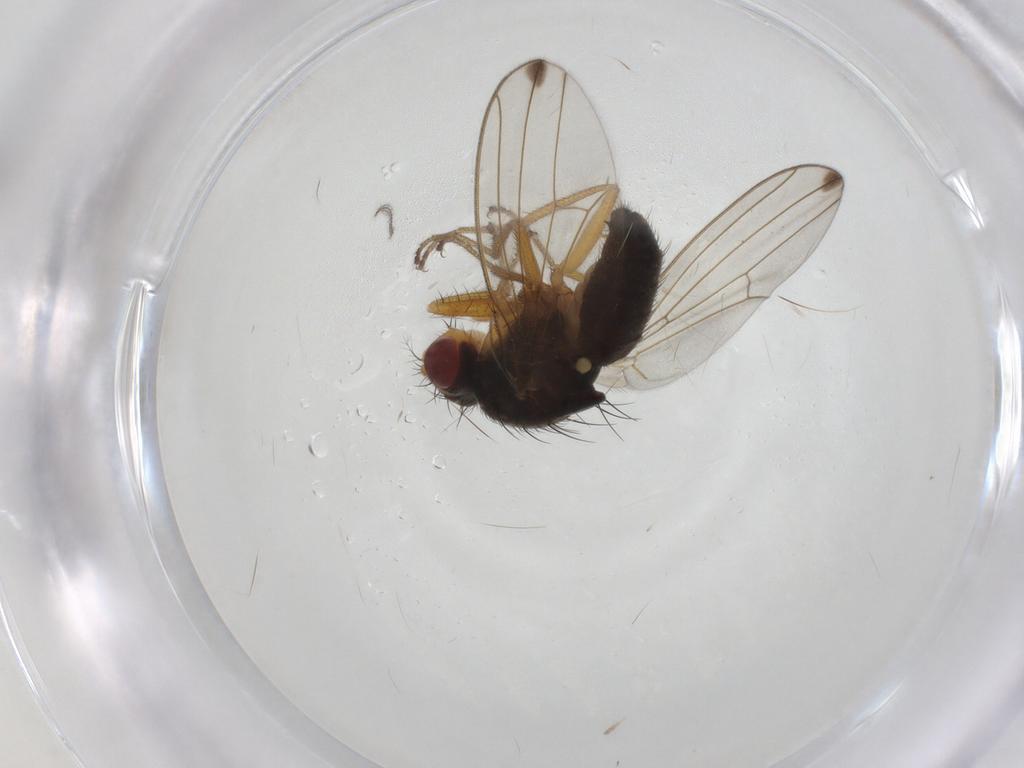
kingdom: Animalia
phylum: Arthropoda
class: Insecta
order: Diptera
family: Chironomidae
